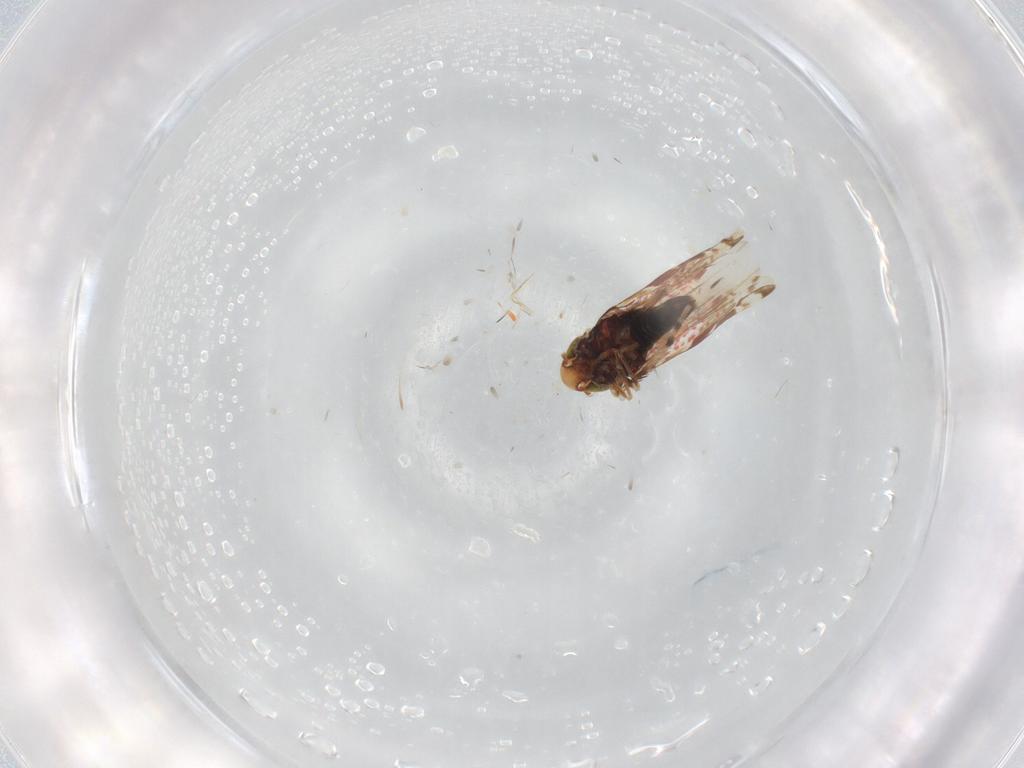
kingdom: Animalia
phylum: Arthropoda
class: Insecta
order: Hemiptera
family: Cicadellidae
